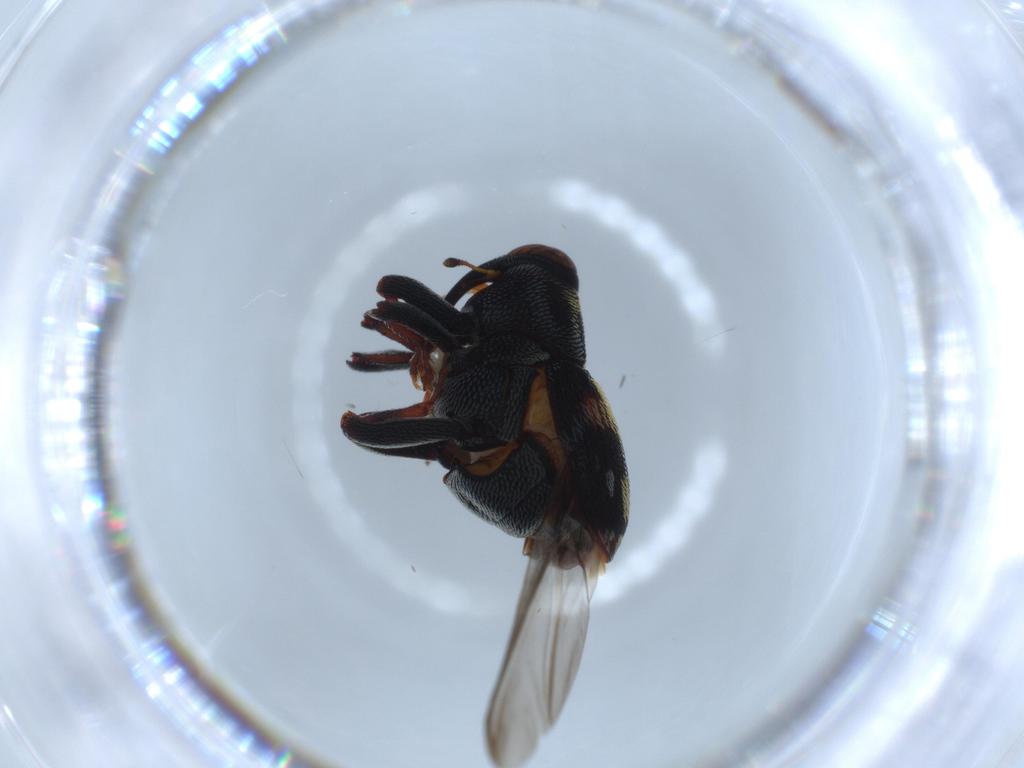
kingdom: Animalia
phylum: Arthropoda
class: Insecta
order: Coleoptera
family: Curculionidae
